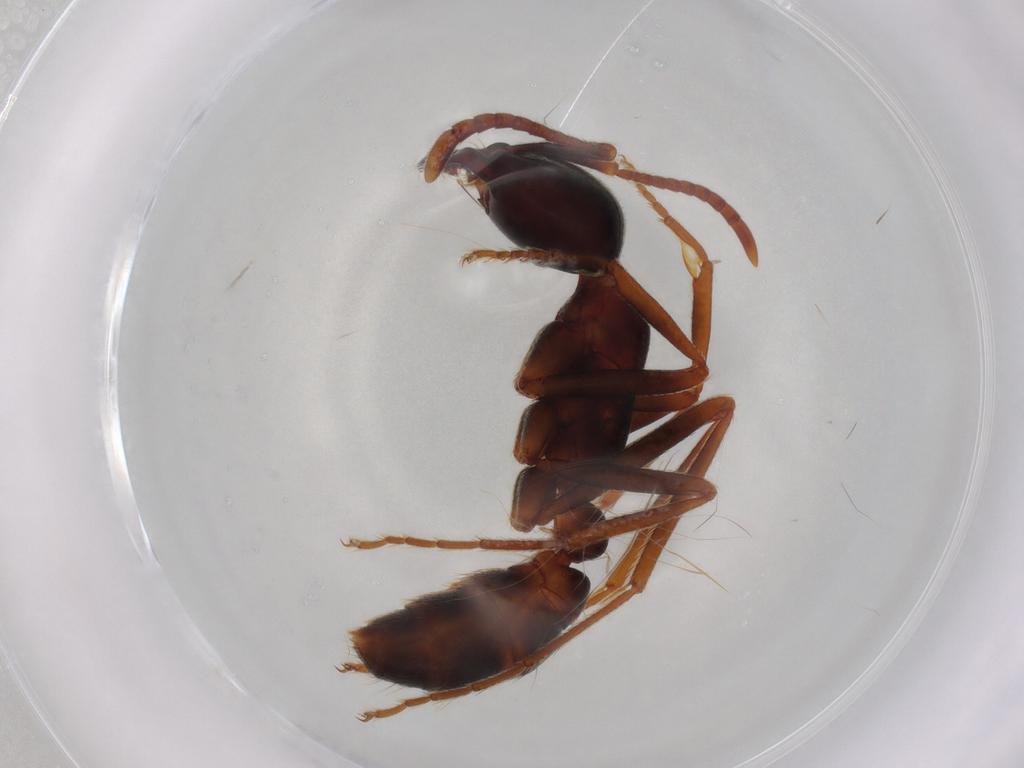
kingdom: Animalia
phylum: Arthropoda
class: Insecta
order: Hymenoptera
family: Formicidae
